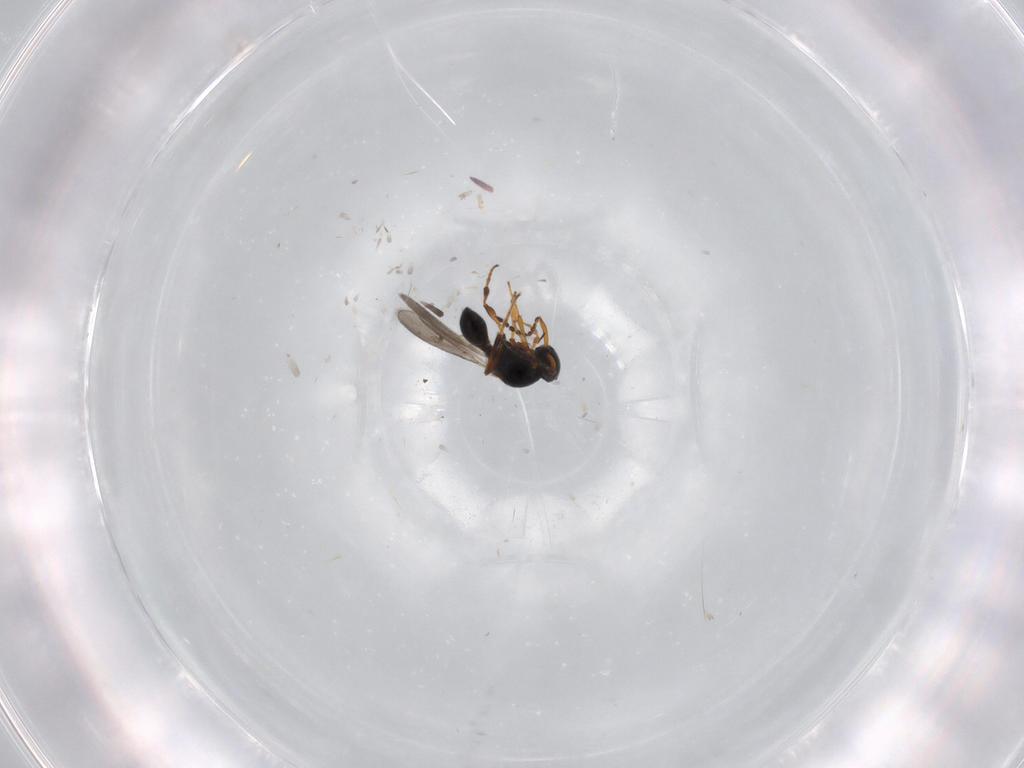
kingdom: Animalia
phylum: Arthropoda
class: Insecta
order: Hymenoptera
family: Platygastridae
